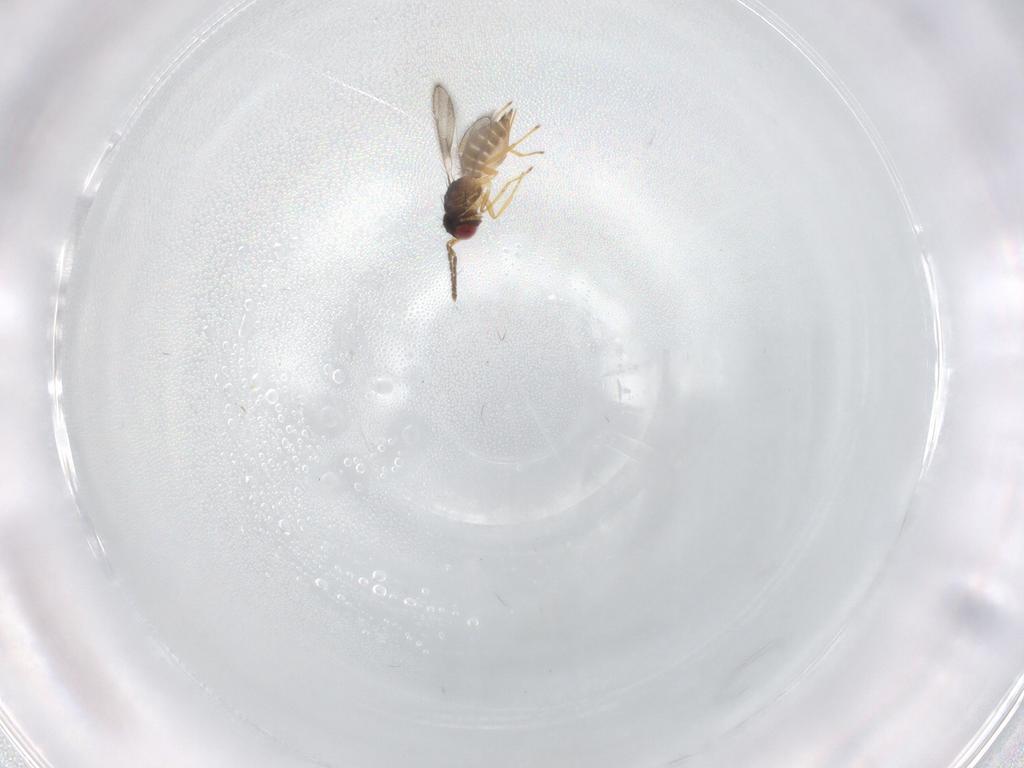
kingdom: Animalia
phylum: Arthropoda
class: Insecta
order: Hymenoptera
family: Eulophidae
